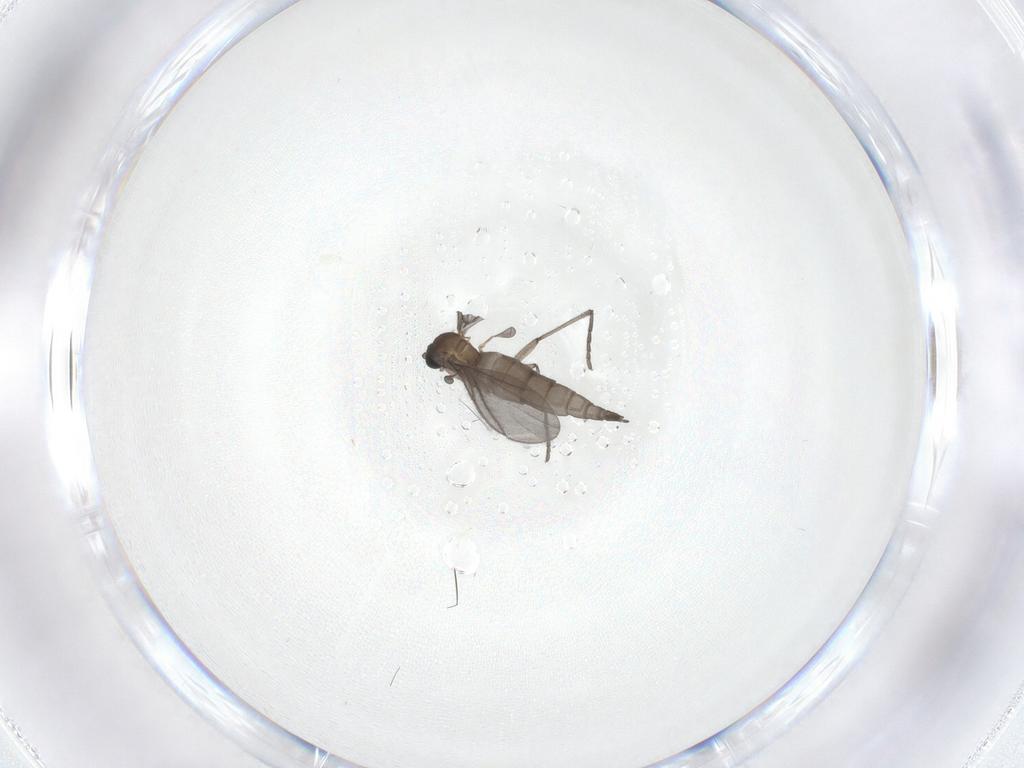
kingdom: Animalia
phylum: Arthropoda
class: Insecta
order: Diptera
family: Sciaridae
